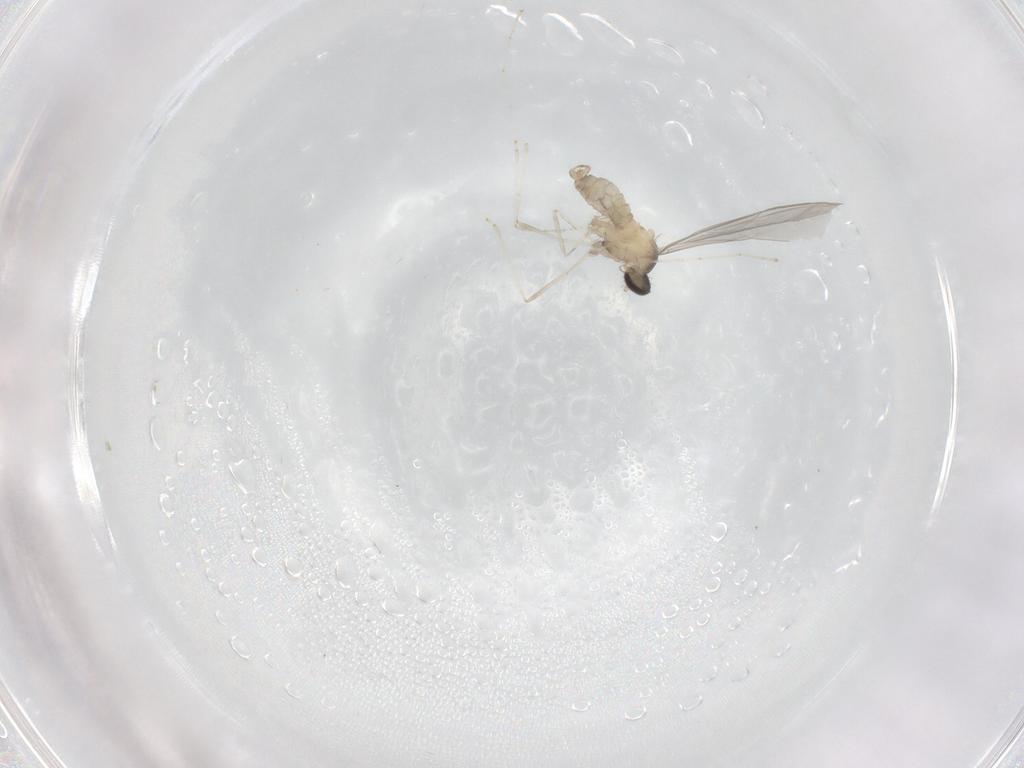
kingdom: Animalia
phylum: Arthropoda
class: Insecta
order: Diptera
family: Cecidomyiidae
